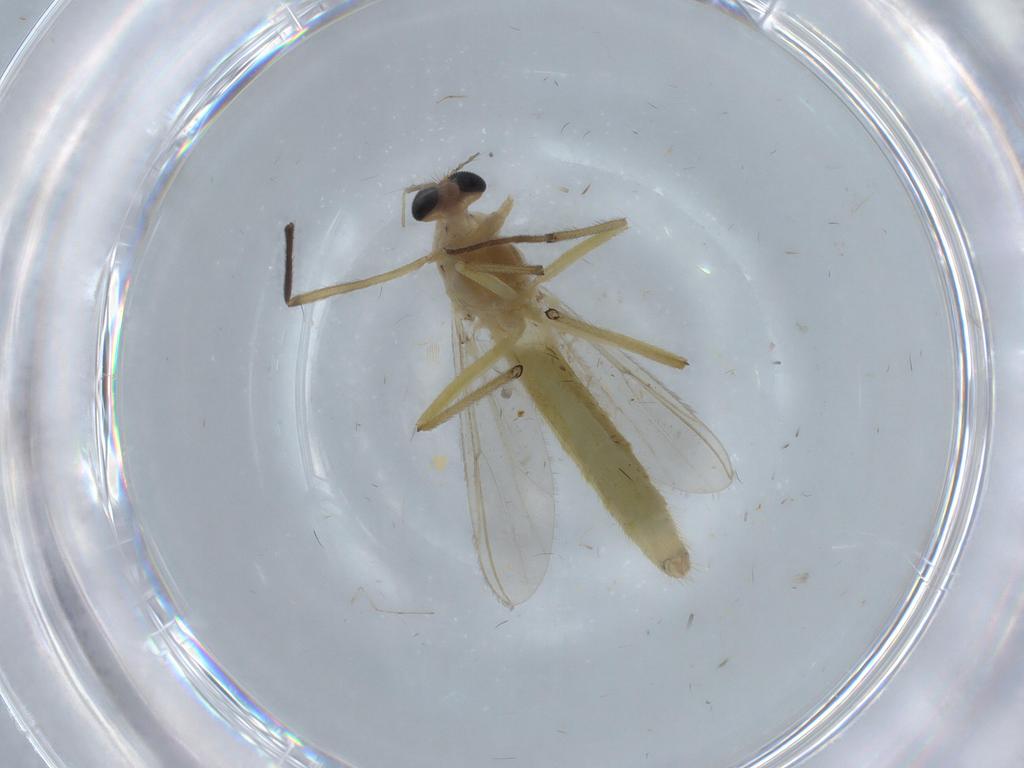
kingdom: Animalia
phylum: Arthropoda
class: Insecta
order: Diptera
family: Chironomidae
